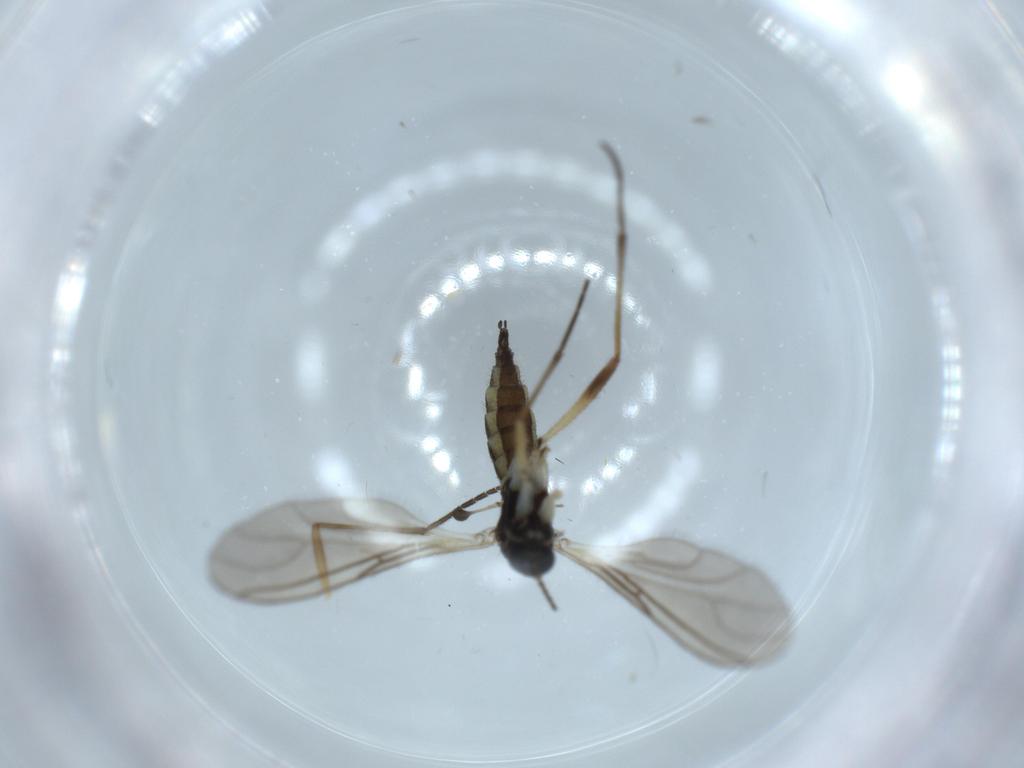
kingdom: Animalia
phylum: Arthropoda
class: Insecta
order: Diptera
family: Sciaridae
